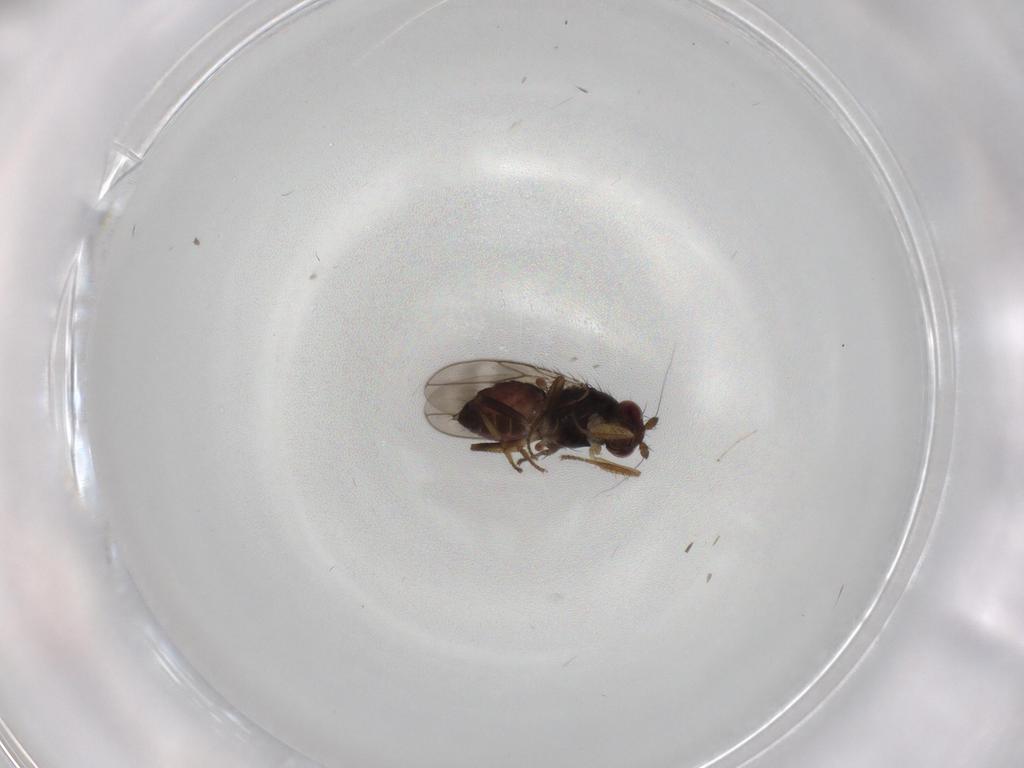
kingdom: Animalia
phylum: Arthropoda
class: Insecta
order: Diptera
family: Sphaeroceridae
